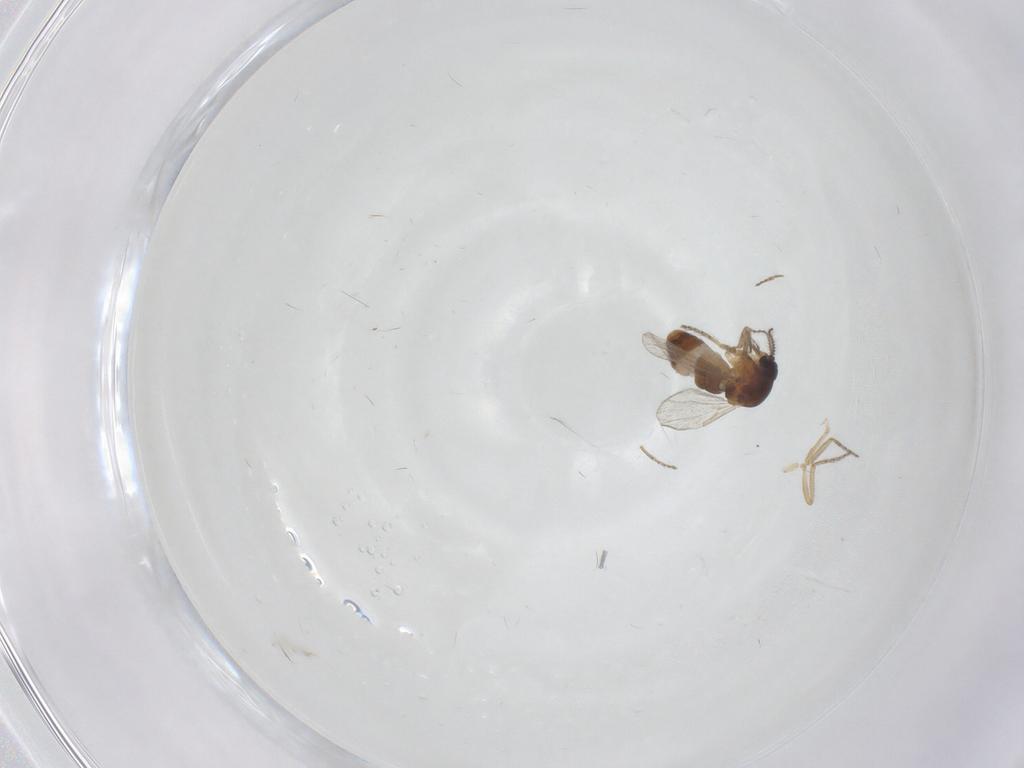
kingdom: Animalia
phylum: Arthropoda
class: Insecta
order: Diptera
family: Ceratopogonidae
